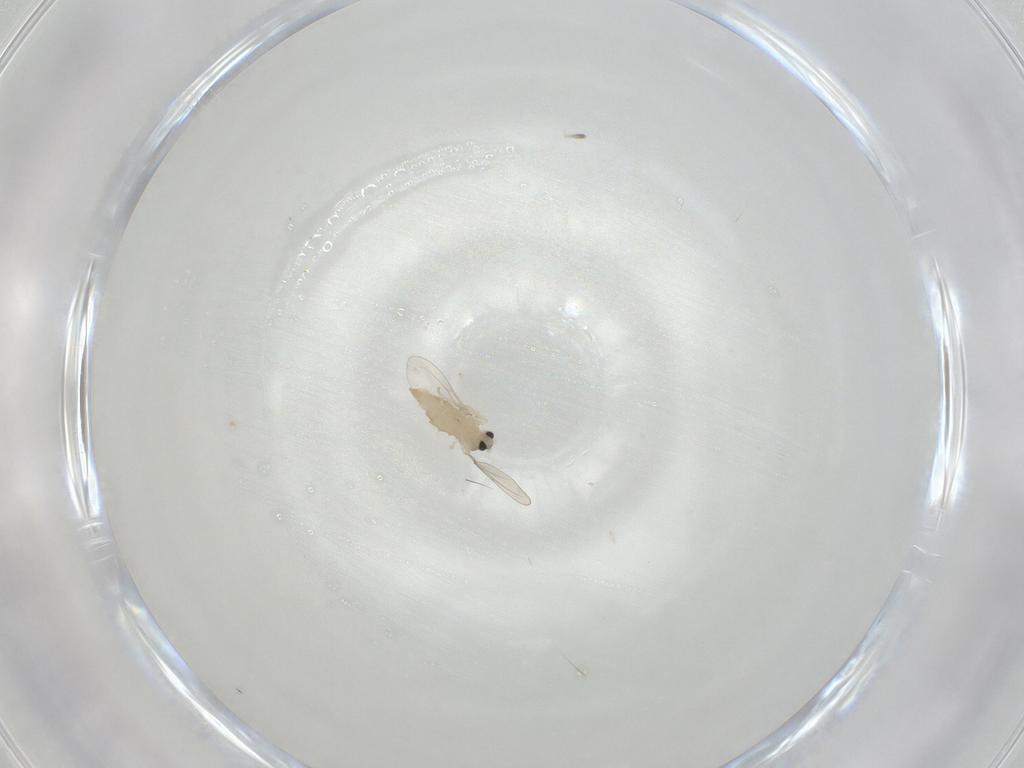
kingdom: Animalia
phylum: Arthropoda
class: Insecta
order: Diptera
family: Cecidomyiidae
